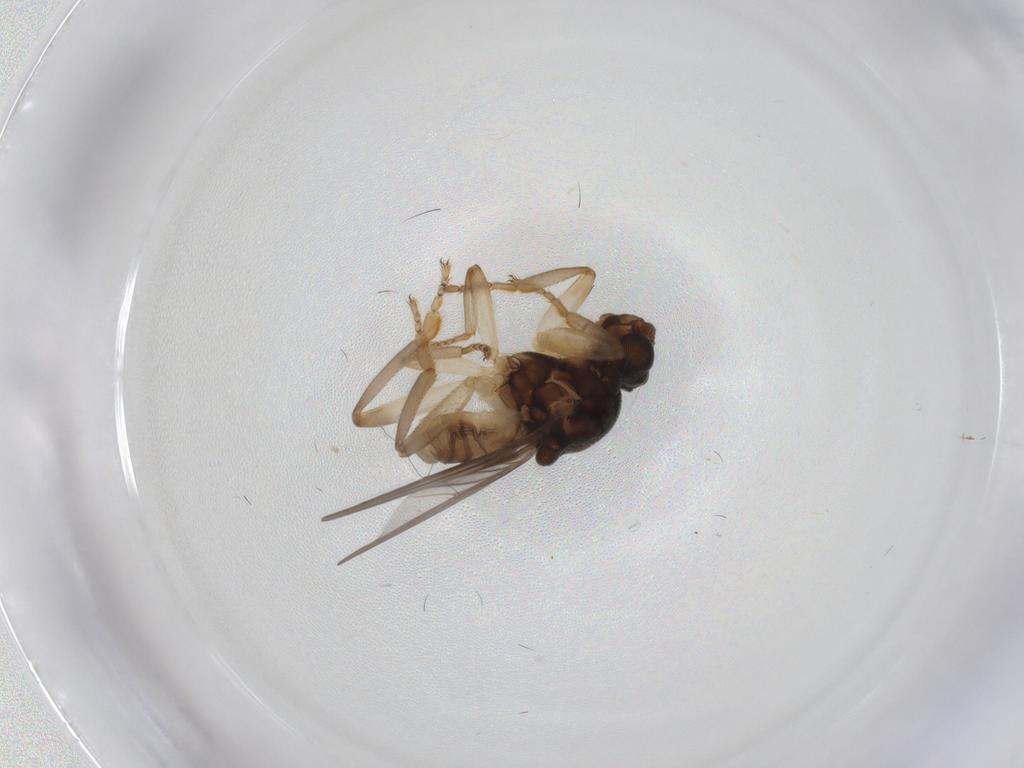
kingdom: Animalia
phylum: Arthropoda
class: Insecta
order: Diptera
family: Sphaeroceridae
